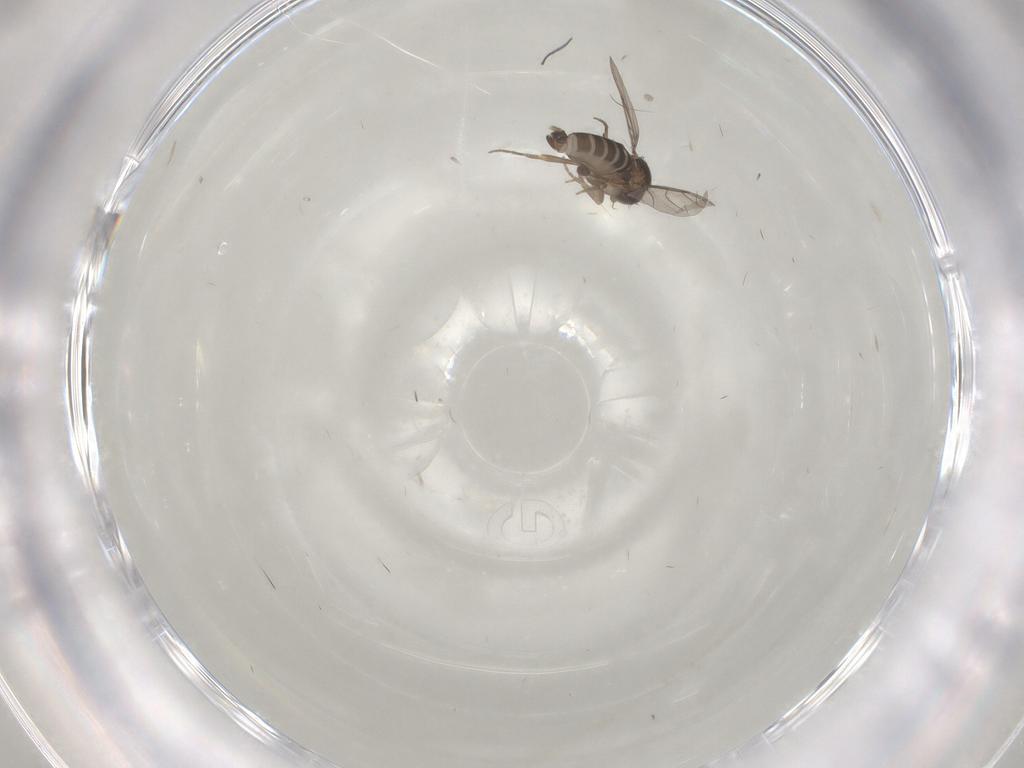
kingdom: Animalia
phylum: Arthropoda
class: Insecta
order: Diptera
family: Phoridae
